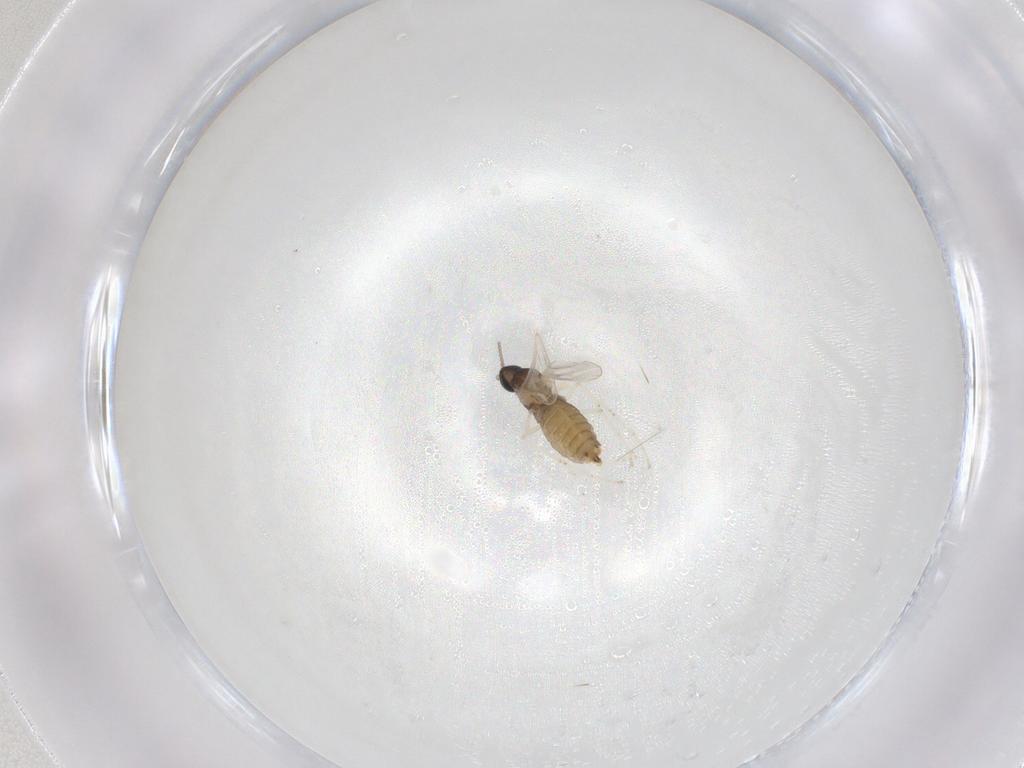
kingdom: Animalia
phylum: Arthropoda
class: Insecta
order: Diptera
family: Cecidomyiidae
